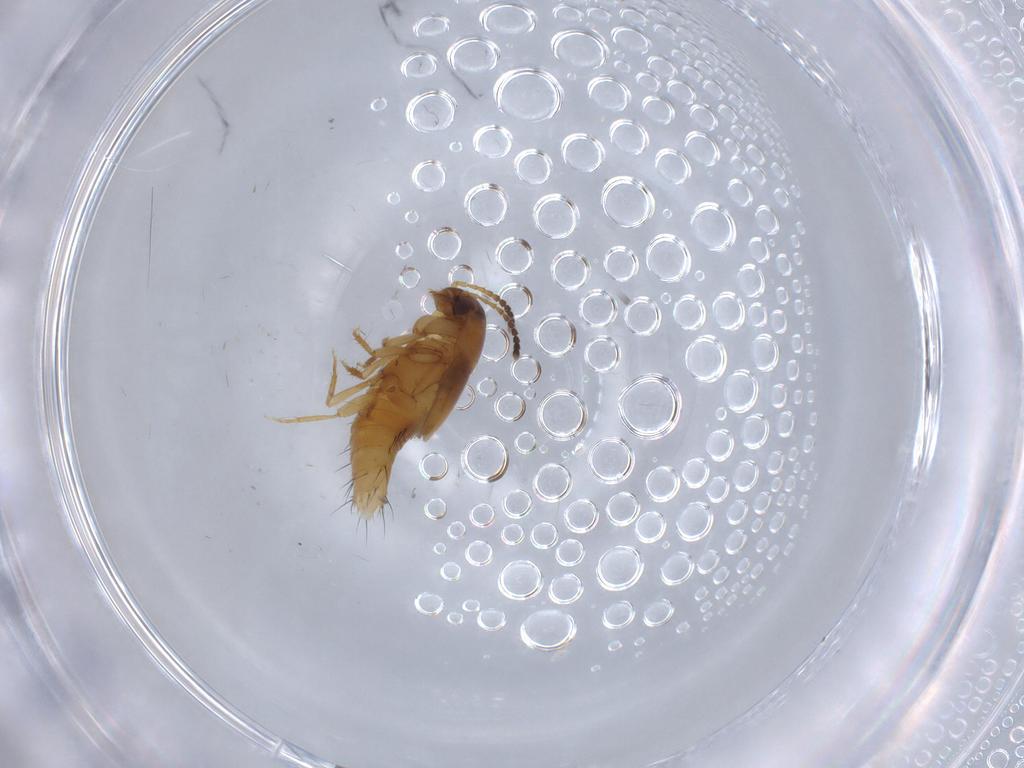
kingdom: Animalia
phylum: Arthropoda
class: Insecta
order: Coleoptera
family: Staphylinidae
